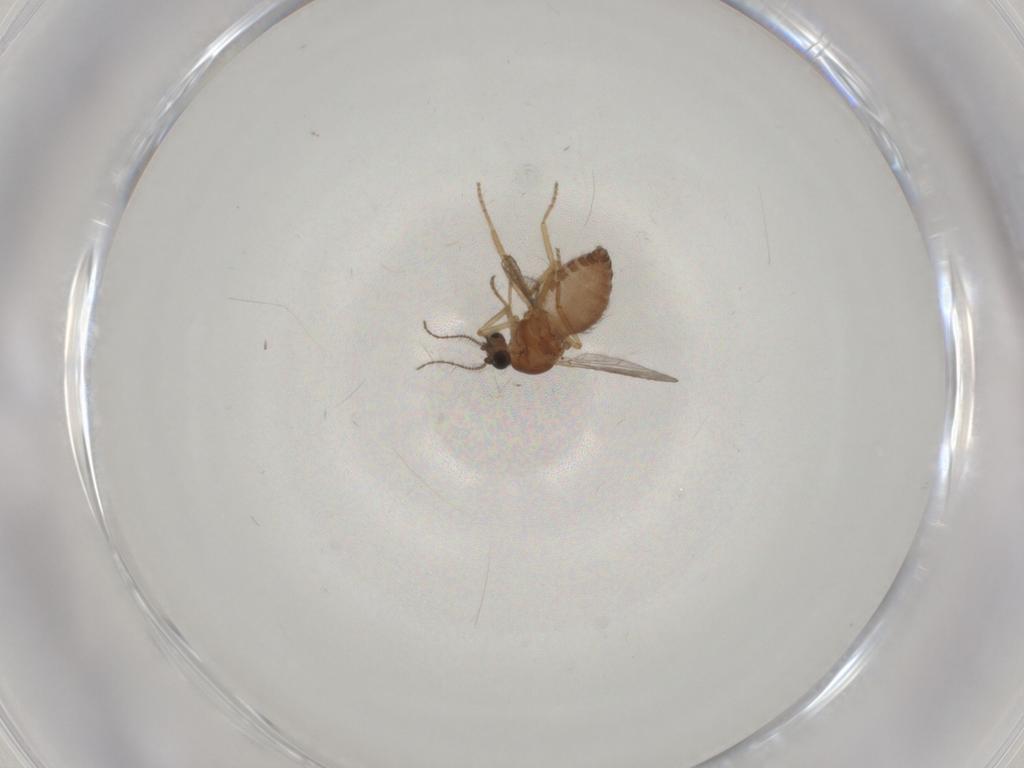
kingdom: Animalia
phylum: Arthropoda
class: Insecta
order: Diptera
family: Ceratopogonidae
